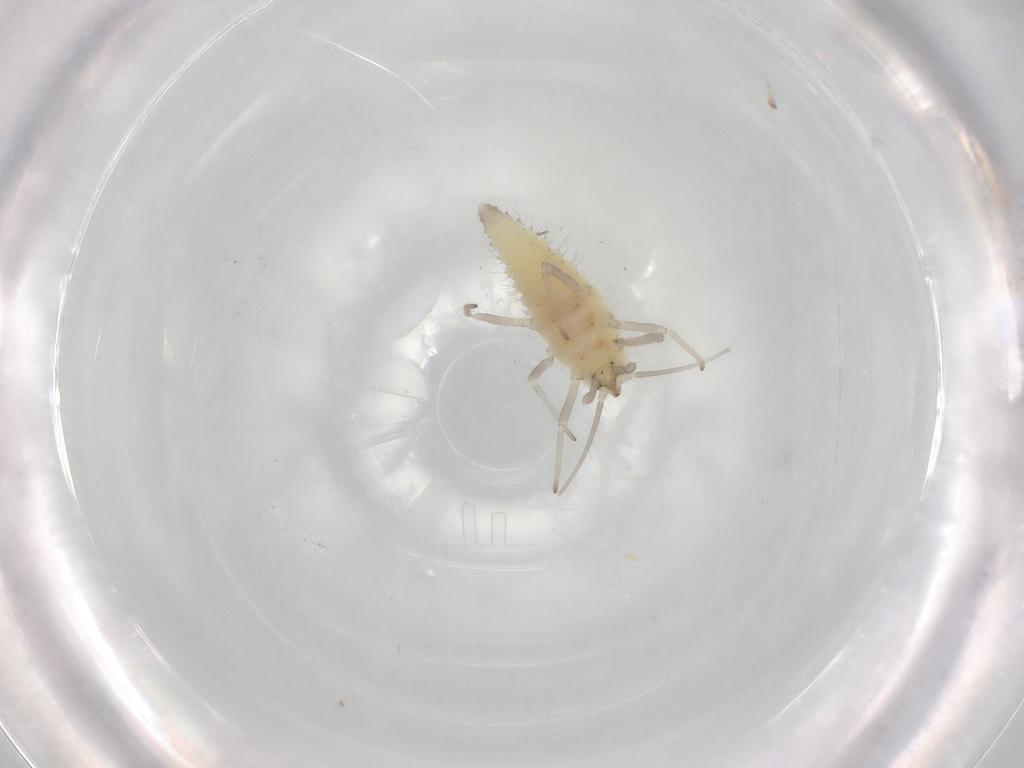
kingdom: Animalia
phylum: Arthropoda
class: Insecta
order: Neuroptera
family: Coniopterygidae
